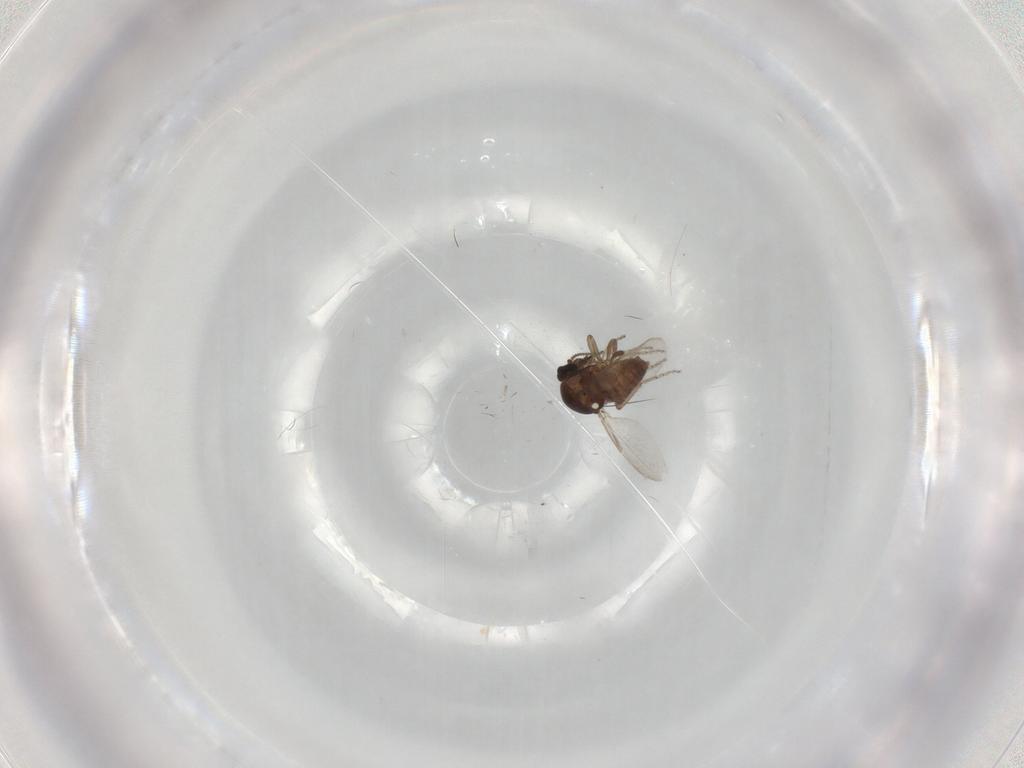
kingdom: Animalia
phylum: Arthropoda
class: Insecta
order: Diptera
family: Ceratopogonidae
